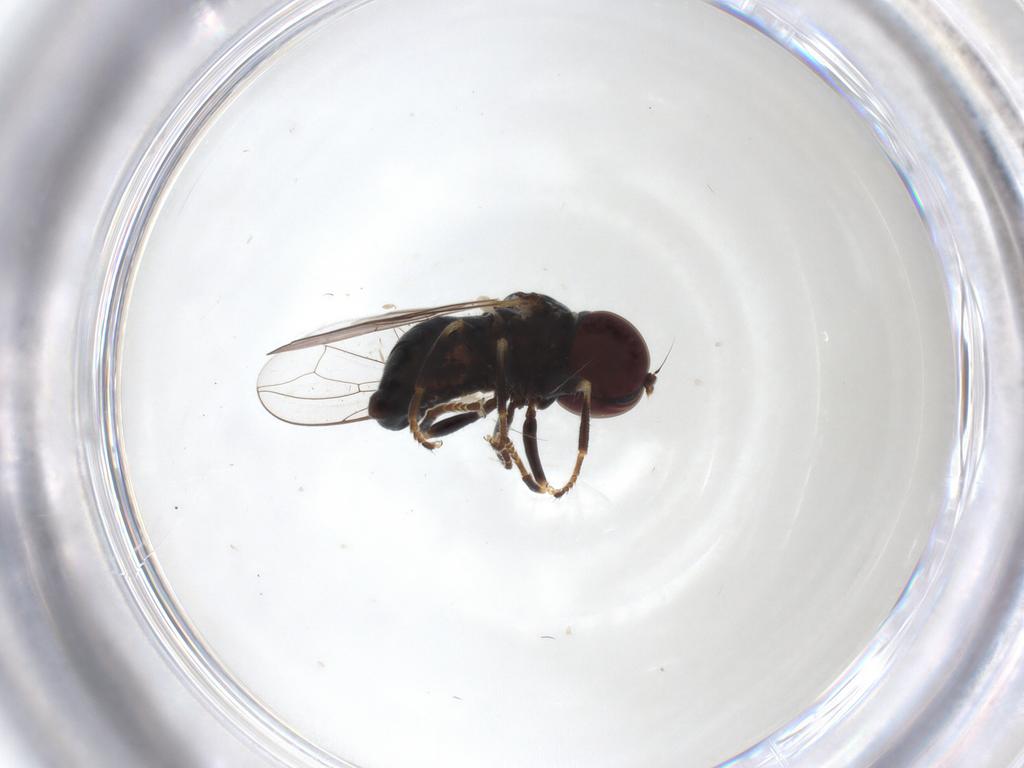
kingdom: Animalia
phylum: Arthropoda
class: Insecta
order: Diptera
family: Pipunculidae
